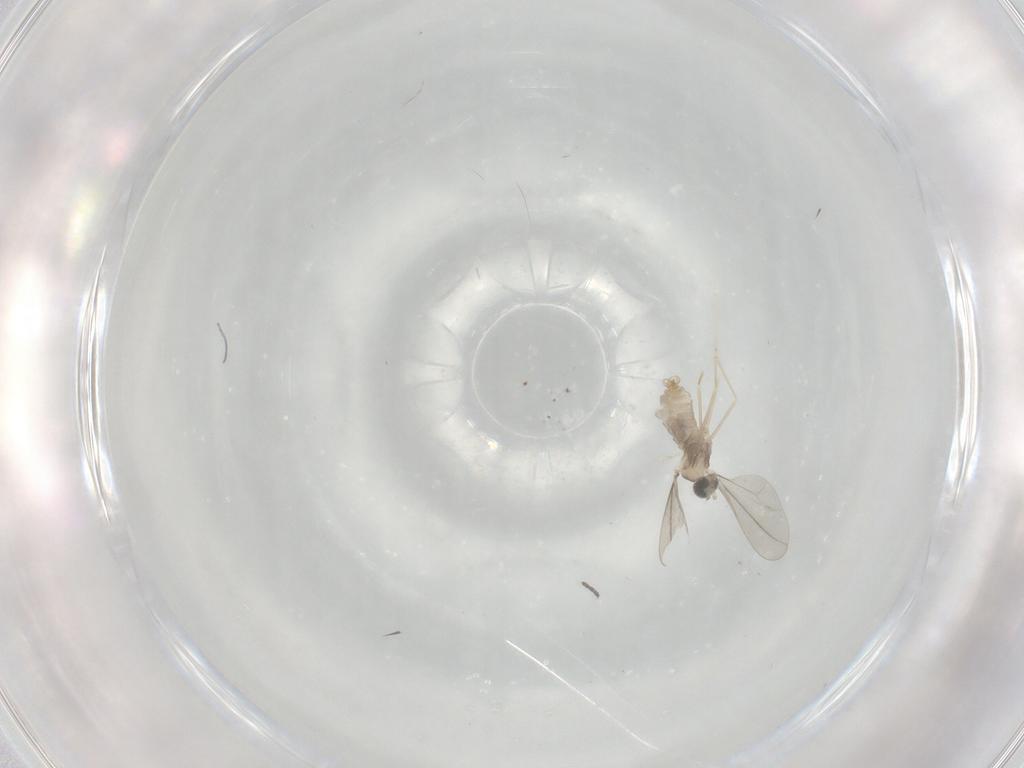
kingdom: Animalia
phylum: Arthropoda
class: Insecta
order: Diptera
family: Sciaridae
